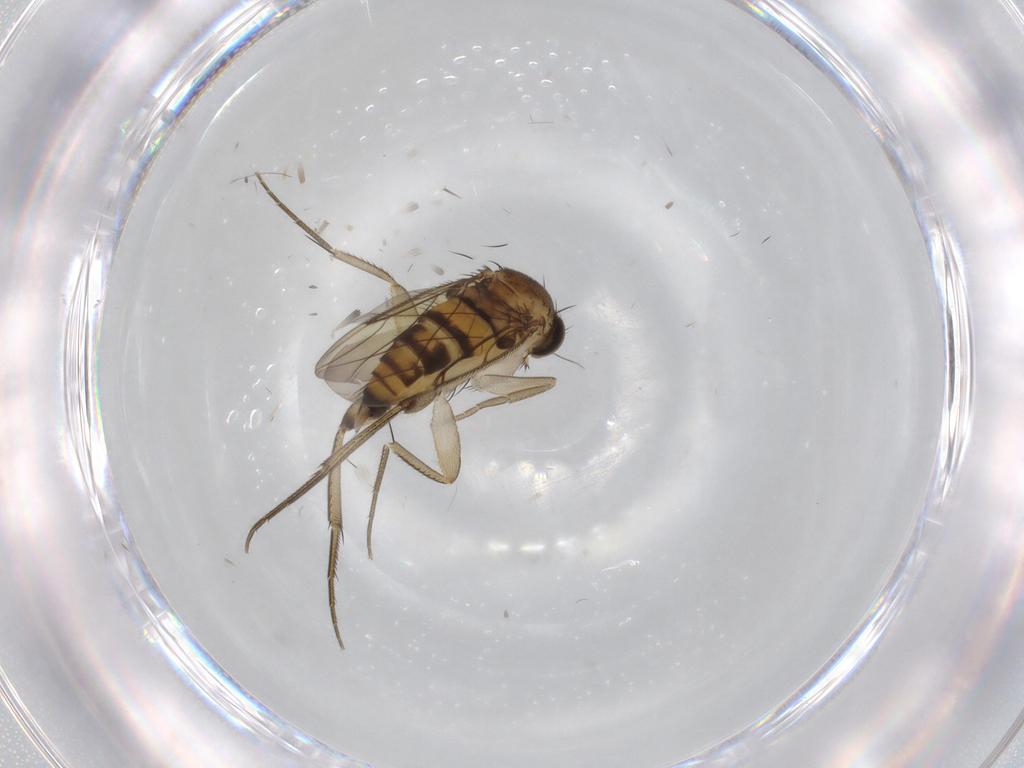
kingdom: Animalia
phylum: Arthropoda
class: Insecta
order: Diptera
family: Phoridae
